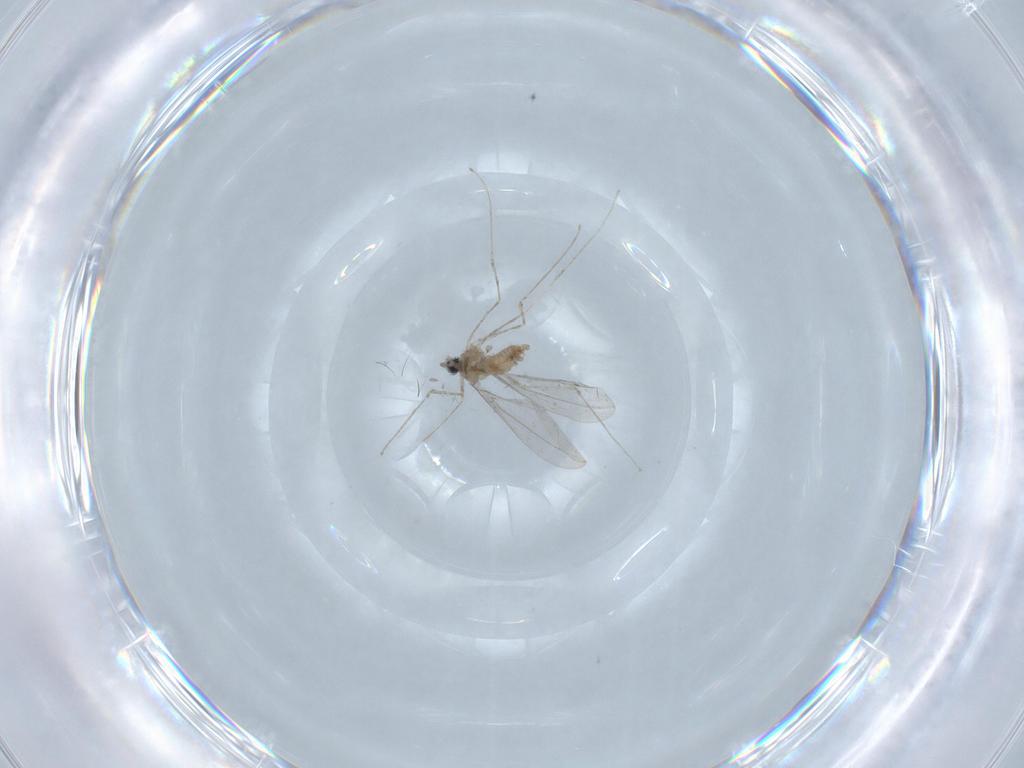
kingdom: Animalia
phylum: Arthropoda
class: Insecta
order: Diptera
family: Cecidomyiidae
